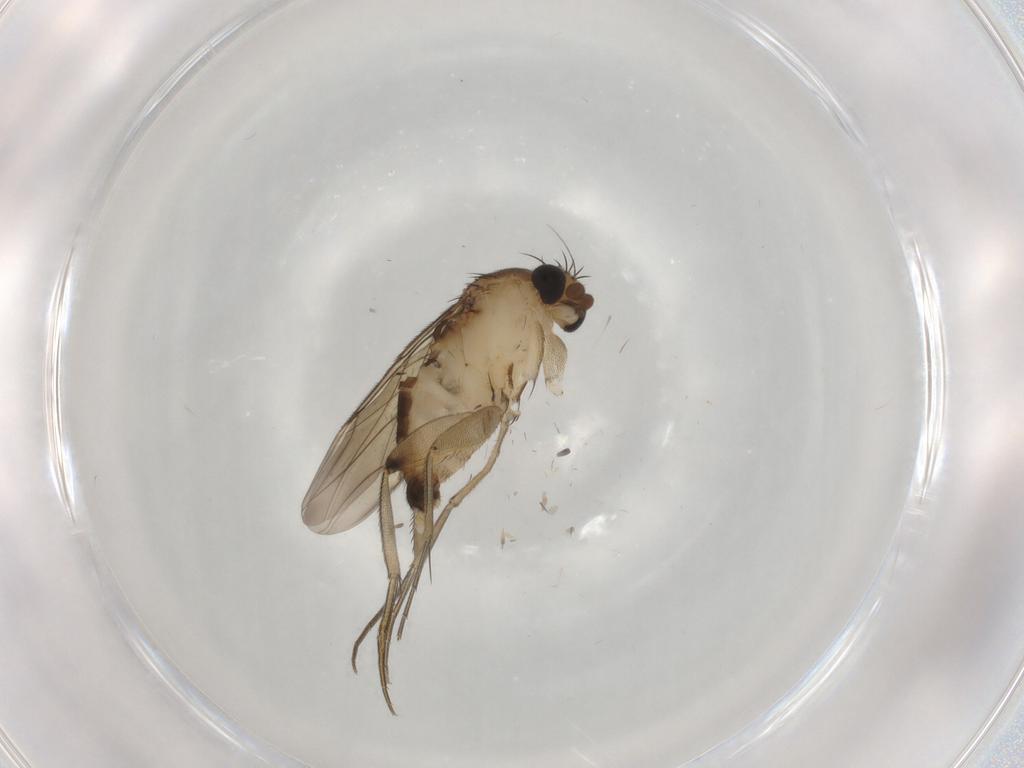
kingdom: Animalia
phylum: Arthropoda
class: Insecta
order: Diptera
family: Phoridae
